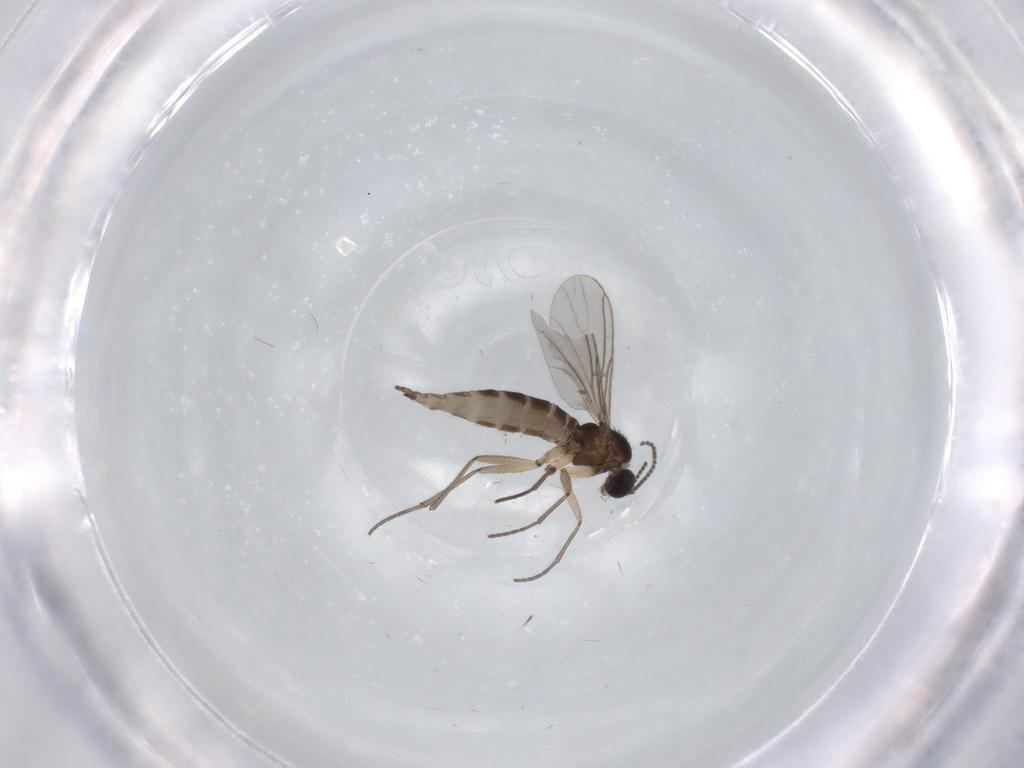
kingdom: Animalia
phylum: Arthropoda
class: Insecta
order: Diptera
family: Sciaridae
